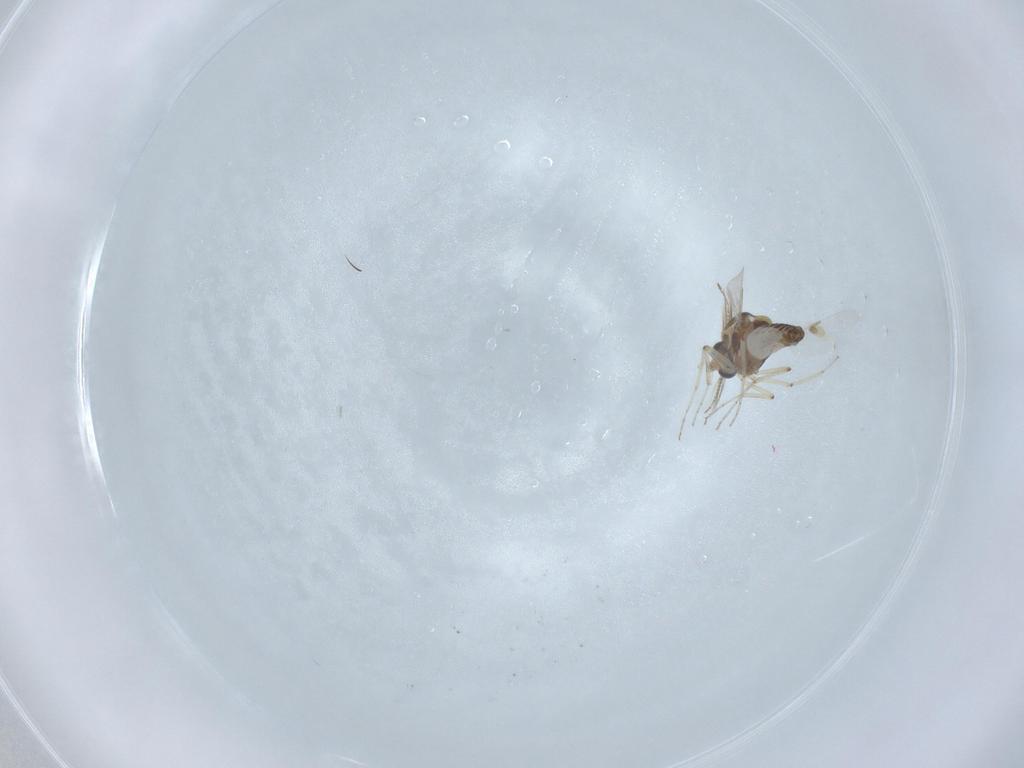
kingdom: Animalia
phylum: Arthropoda
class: Insecta
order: Diptera
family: Ceratopogonidae
